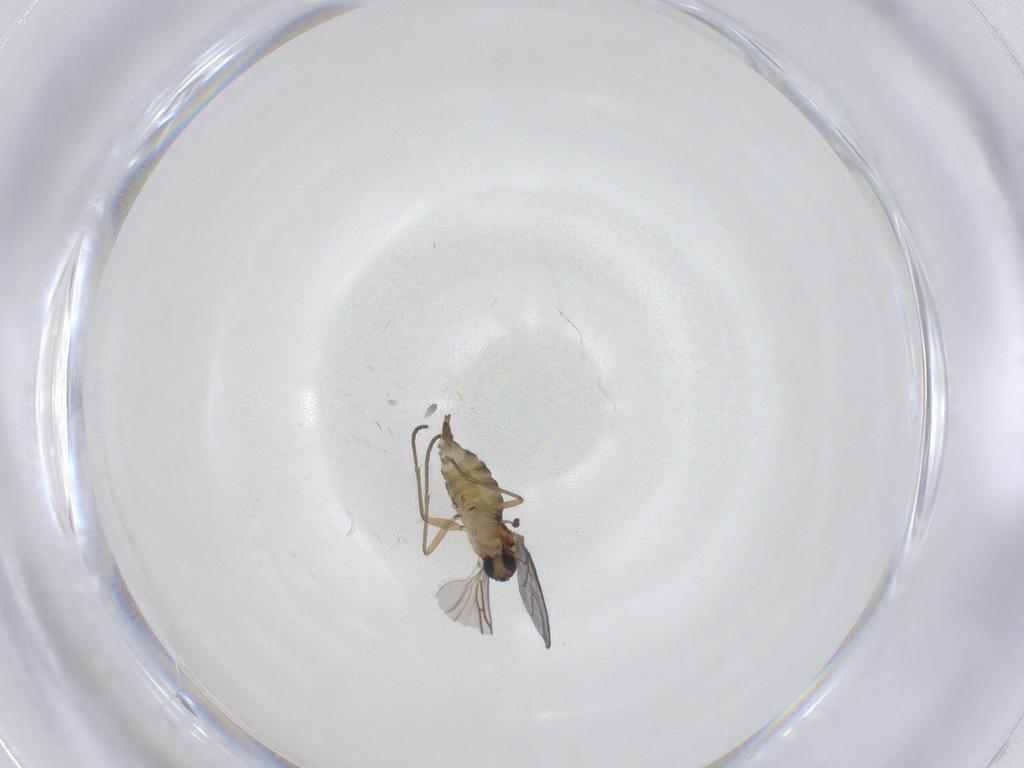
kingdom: Animalia
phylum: Arthropoda
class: Insecta
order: Diptera
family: Sciaridae
